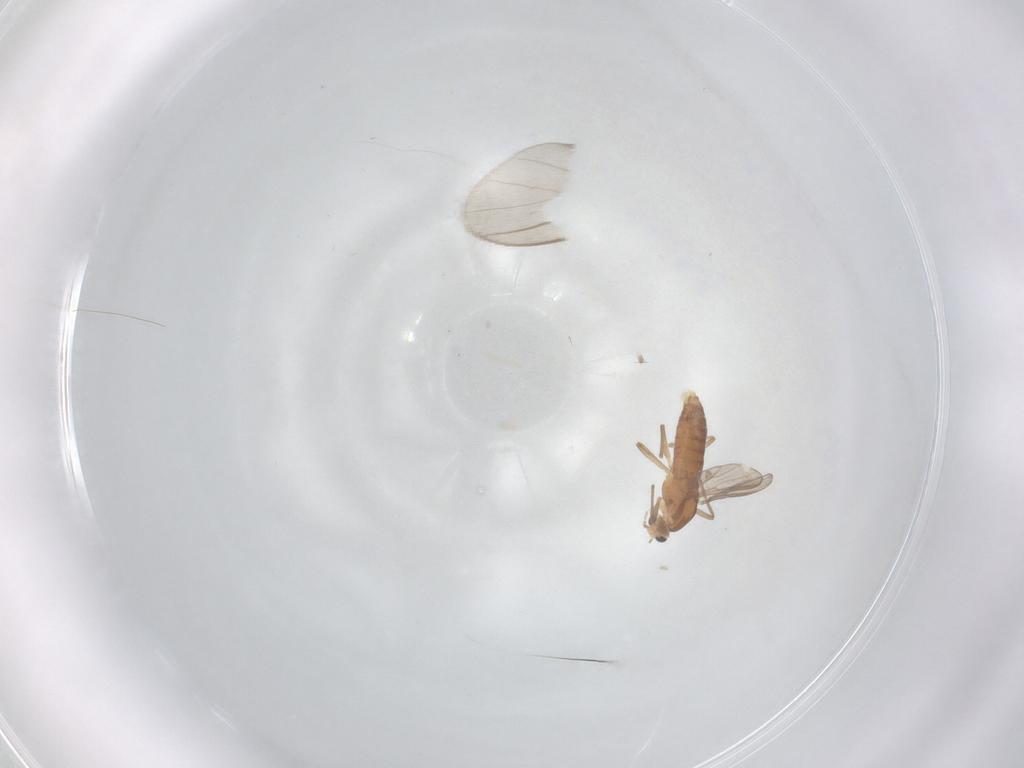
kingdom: Animalia
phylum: Arthropoda
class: Insecta
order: Diptera
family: Chironomidae
